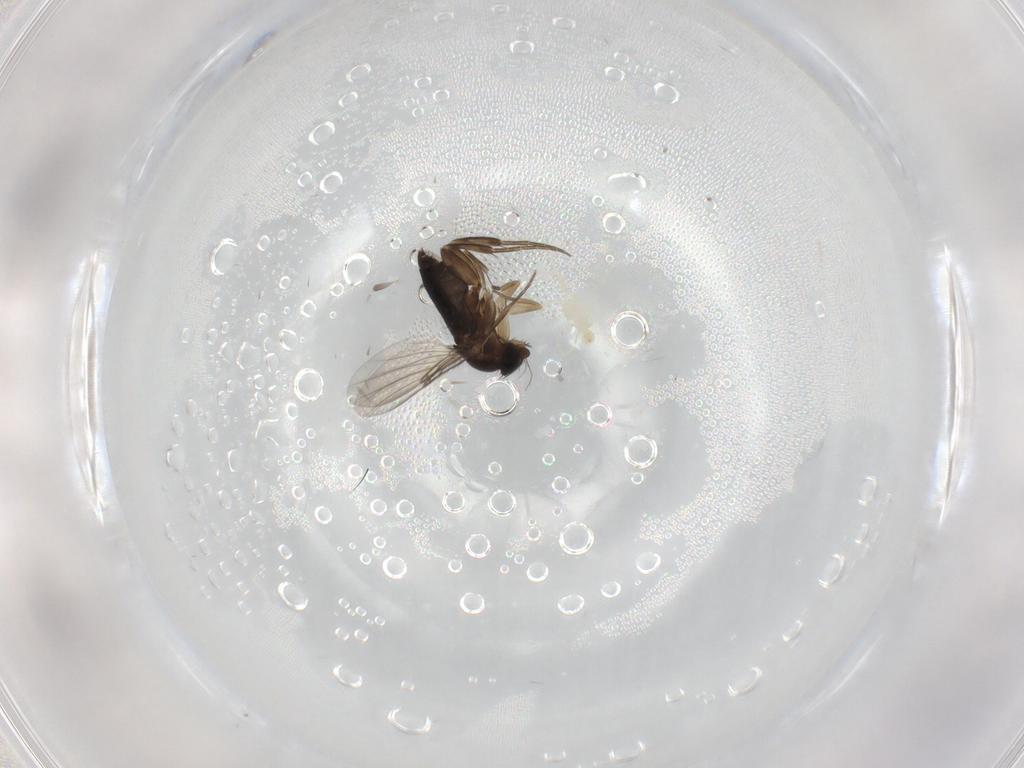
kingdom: Animalia
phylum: Arthropoda
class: Insecta
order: Diptera
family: Phoridae
